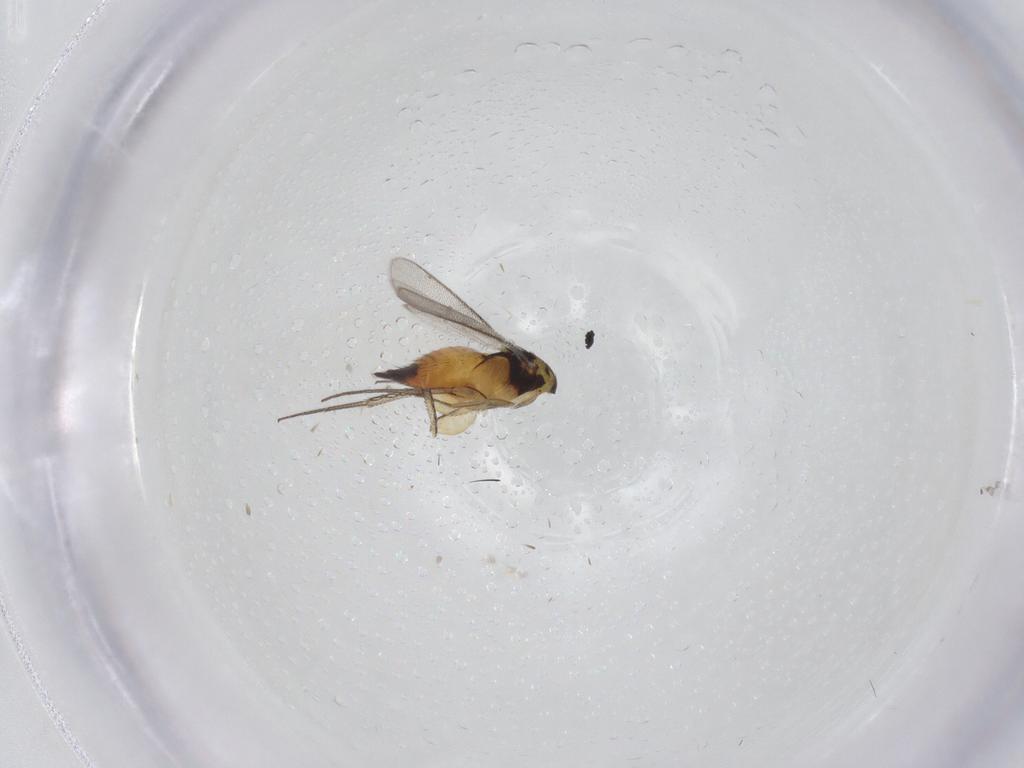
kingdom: Animalia
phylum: Arthropoda
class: Insecta
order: Hymenoptera
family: Eulophidae
